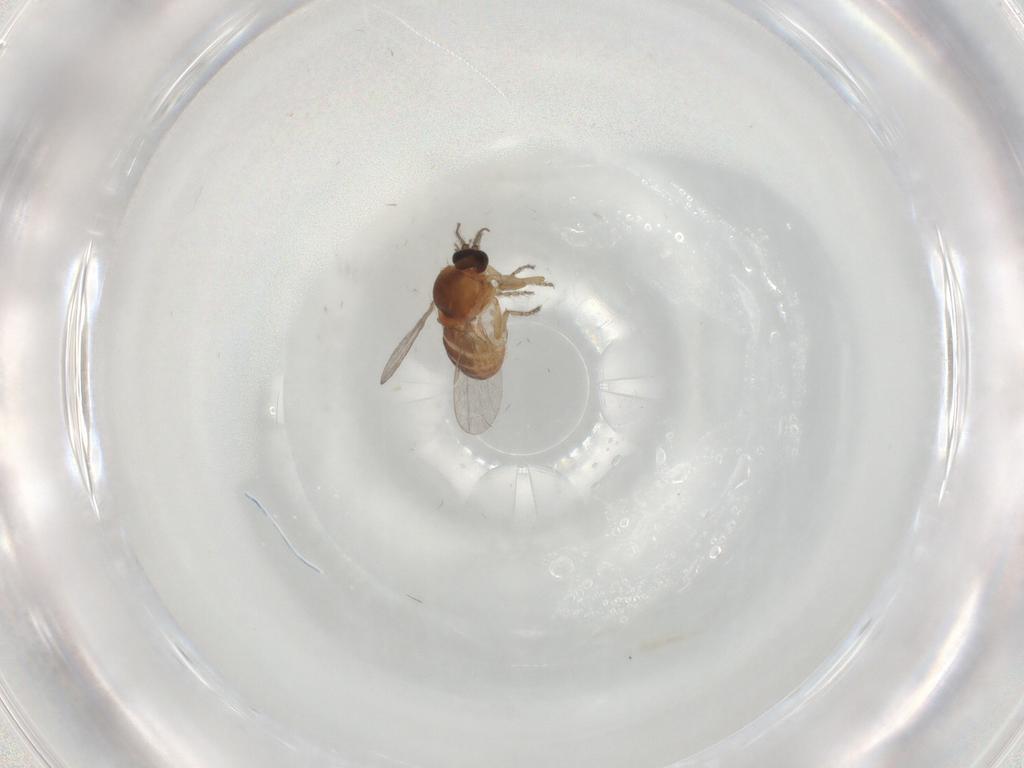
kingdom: Animalia
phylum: Arthropoda
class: Insecta
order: Diptera
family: Ceratopogonidae
